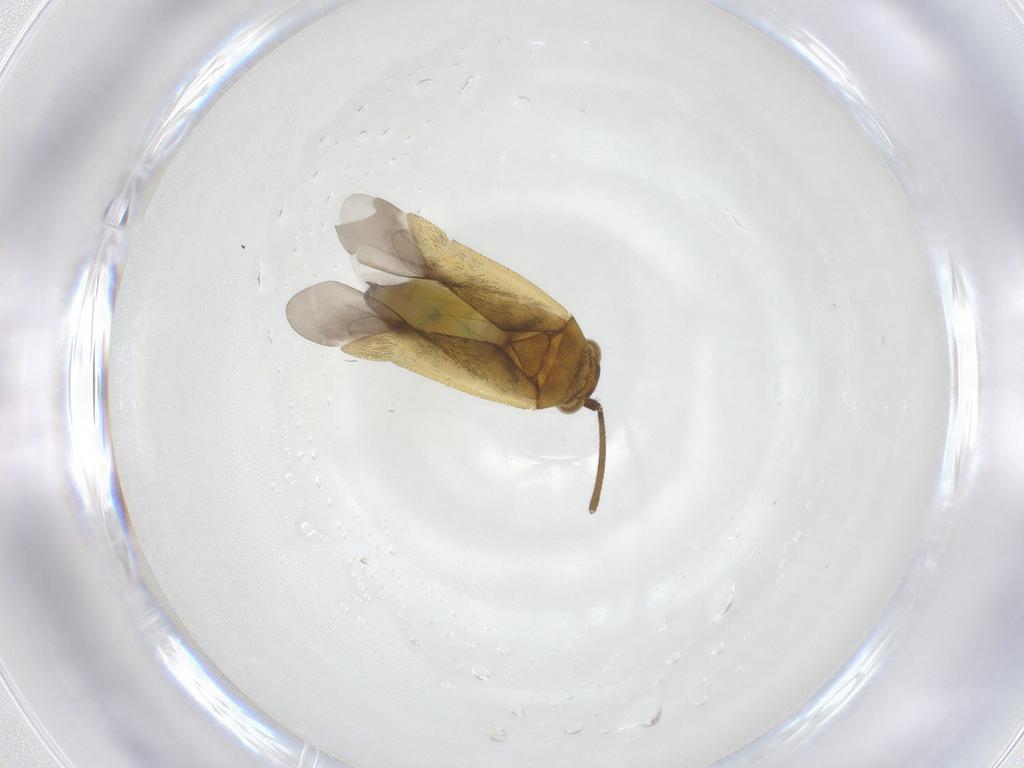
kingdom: Animalia
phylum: Arthropoda
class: Insecta
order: Hemiptera
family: Miridae
